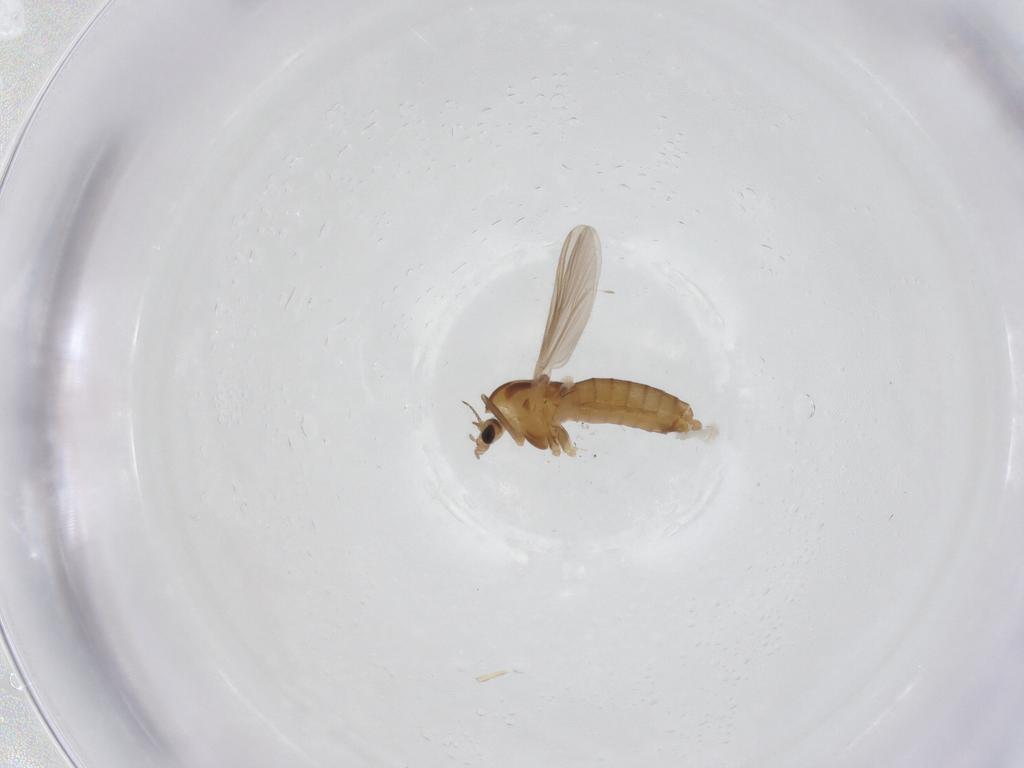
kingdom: Animalia
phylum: Arthropoda
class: Insecta
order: Diptera
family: Chironomidae
